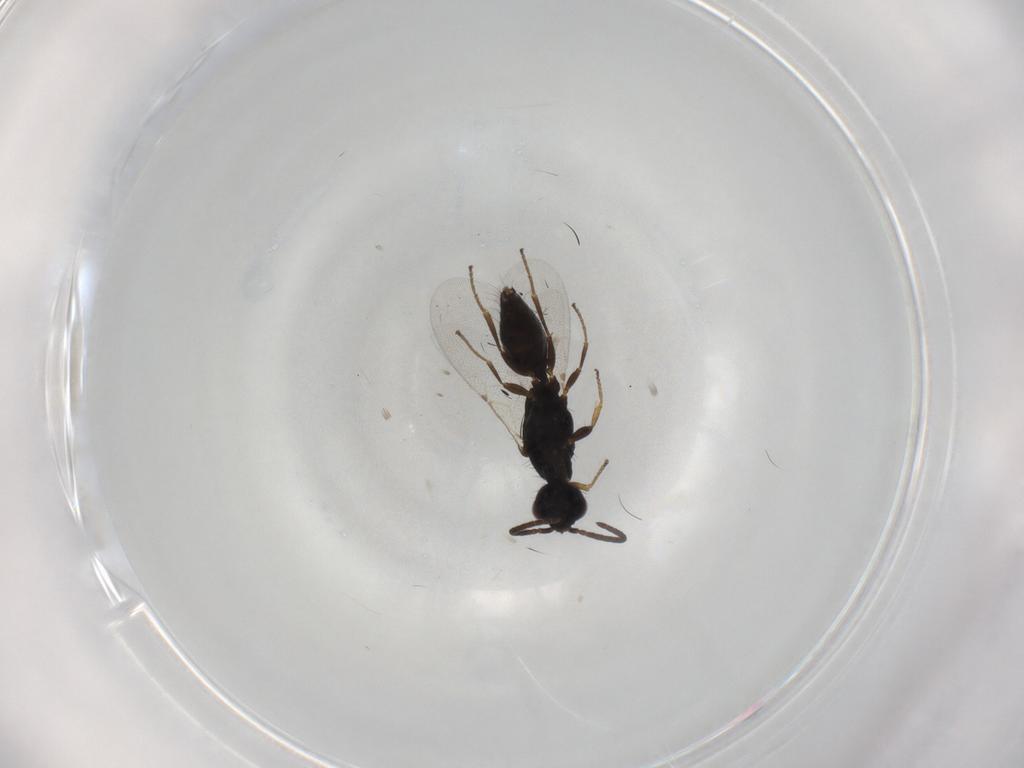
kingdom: Animalia
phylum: Arthropoda
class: Insecta
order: Hymenoptera
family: Bethylidae
